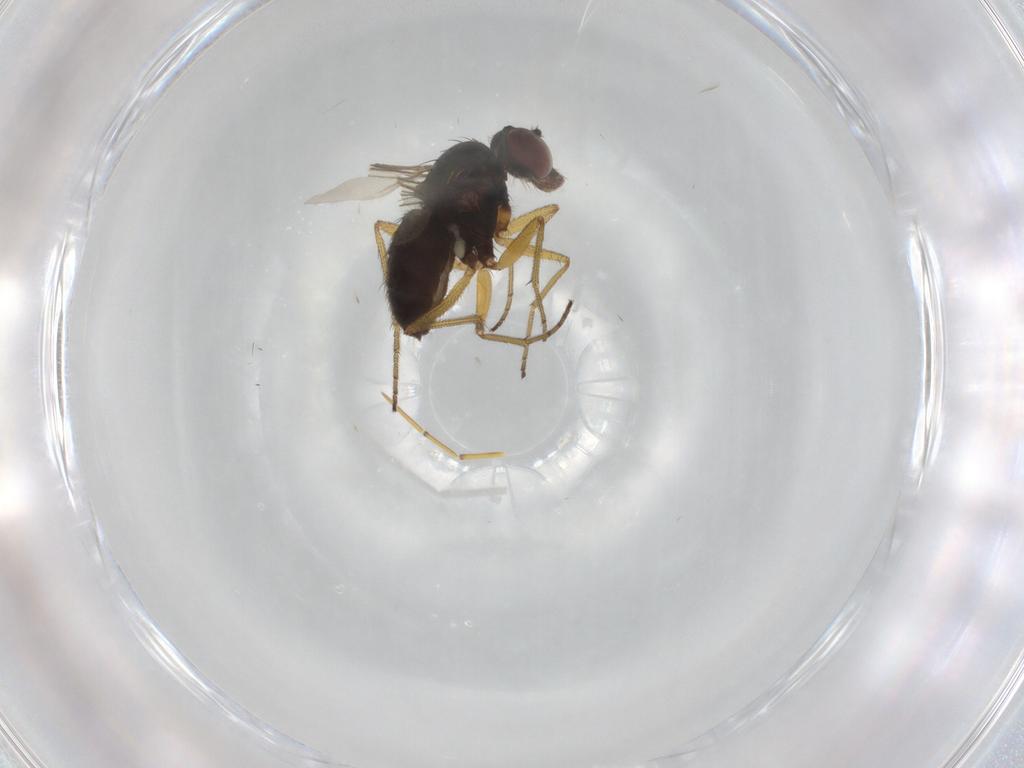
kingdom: Animalia
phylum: Arthropoda
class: Insecta
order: Diptera
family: Dolichopodidae
